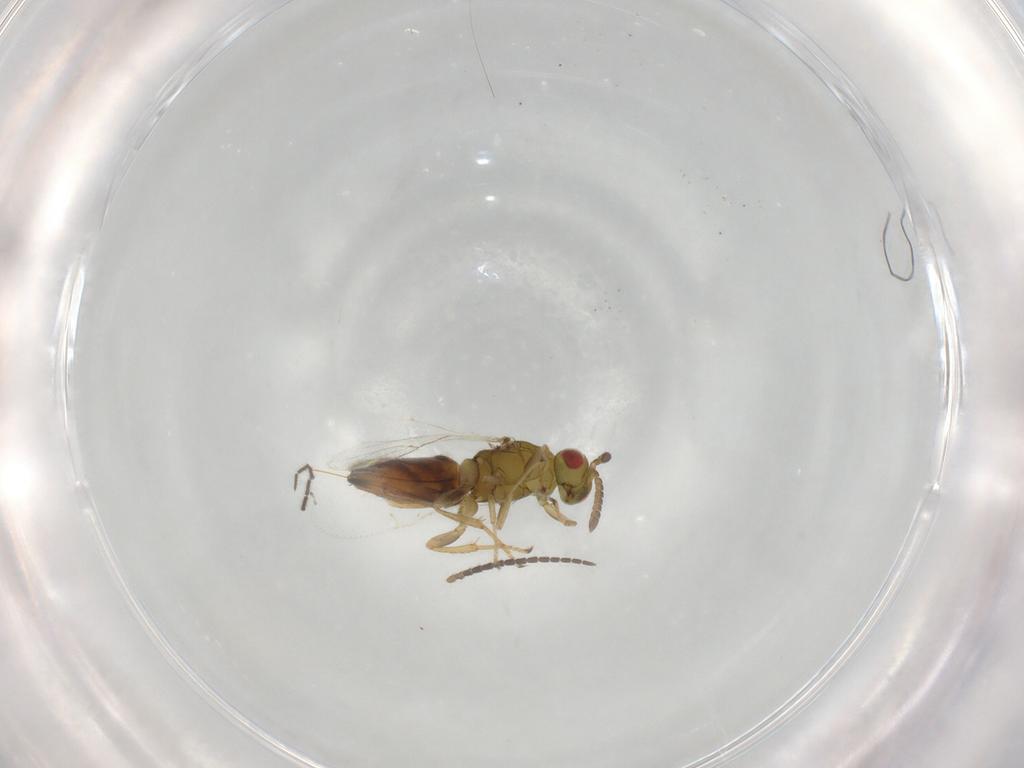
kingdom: Animalia
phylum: Arthropoda
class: Insecta
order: Hymenoptera
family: Epichrysomallidae
